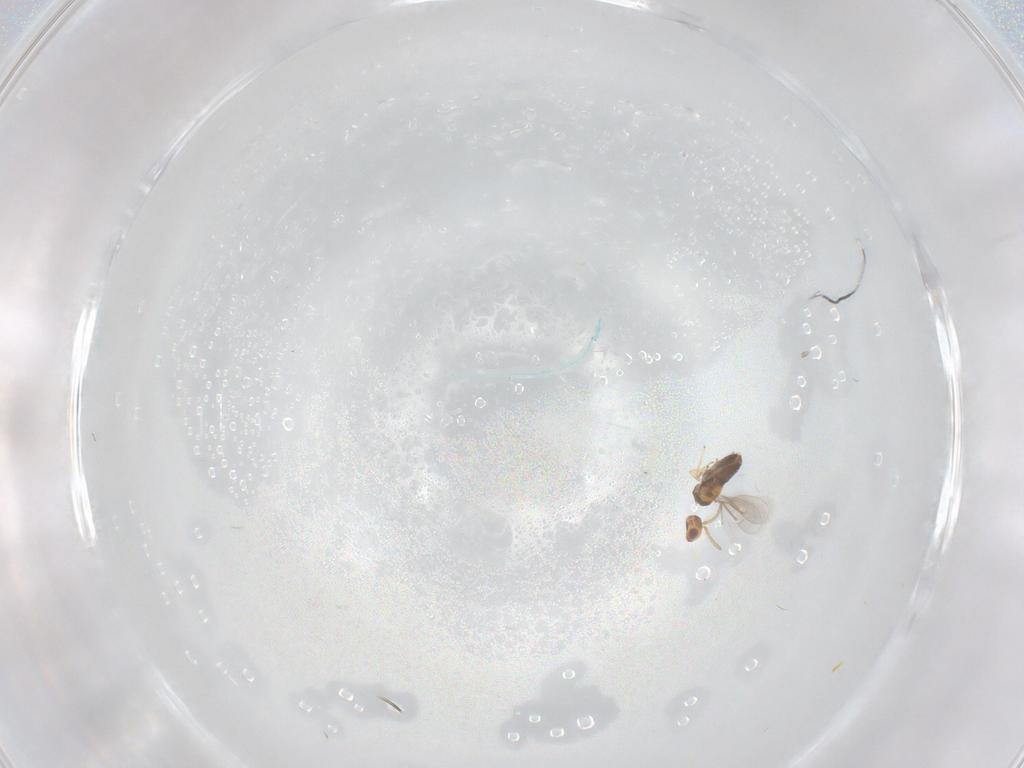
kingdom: Animalia
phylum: Arthropoda
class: Insecta
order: Hymenoptera
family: Aphelinidae
